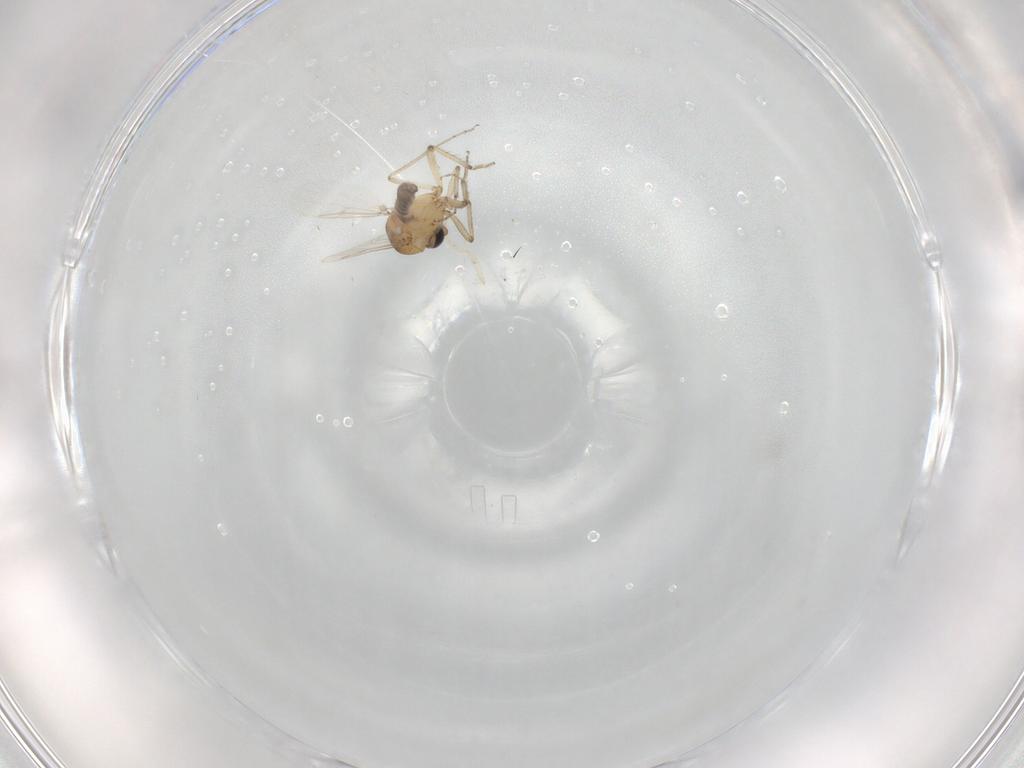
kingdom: Animalia
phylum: Arthropoda
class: Insecta
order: Diptera
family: Ceratopogonidae
